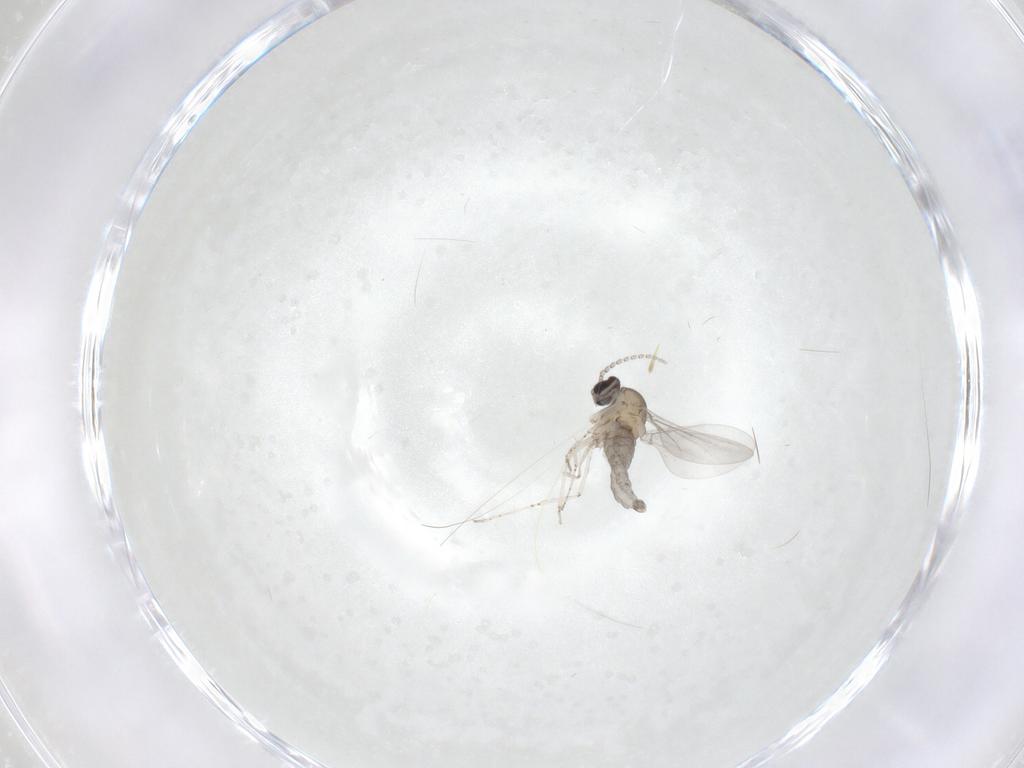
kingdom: Animalia
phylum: Arthropoda
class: Insecta
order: Diptera
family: Cecidomyiidae
